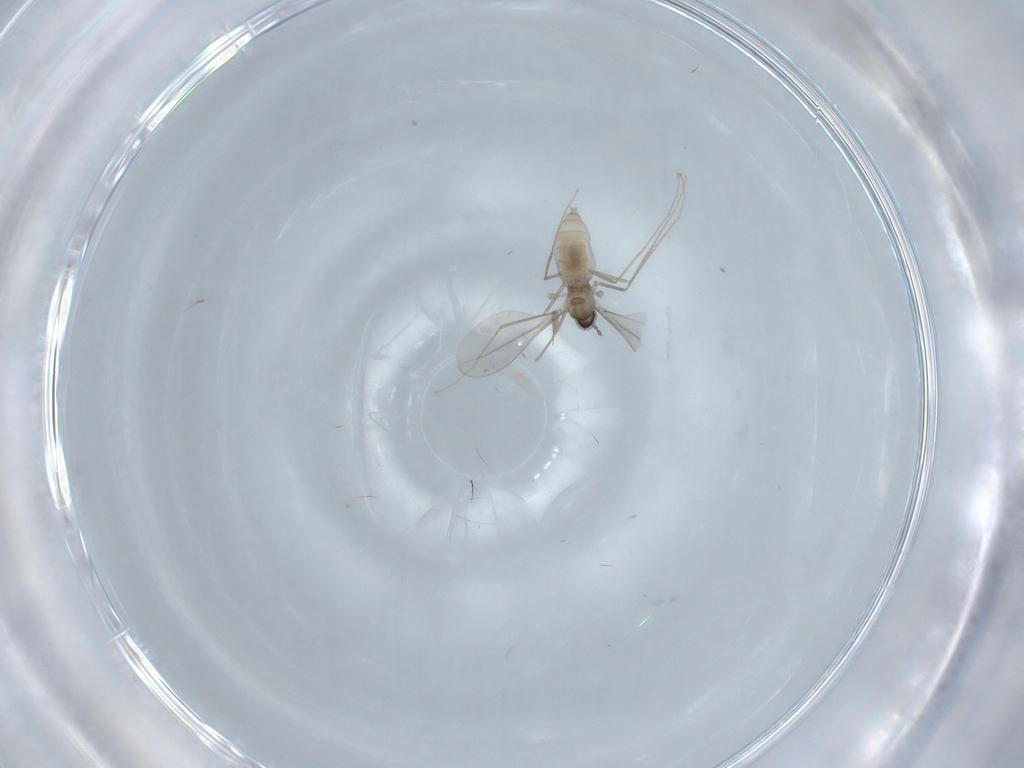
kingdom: Animalia
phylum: Arthropoda
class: Insecta
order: Diptera
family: Cecidomyiidae
